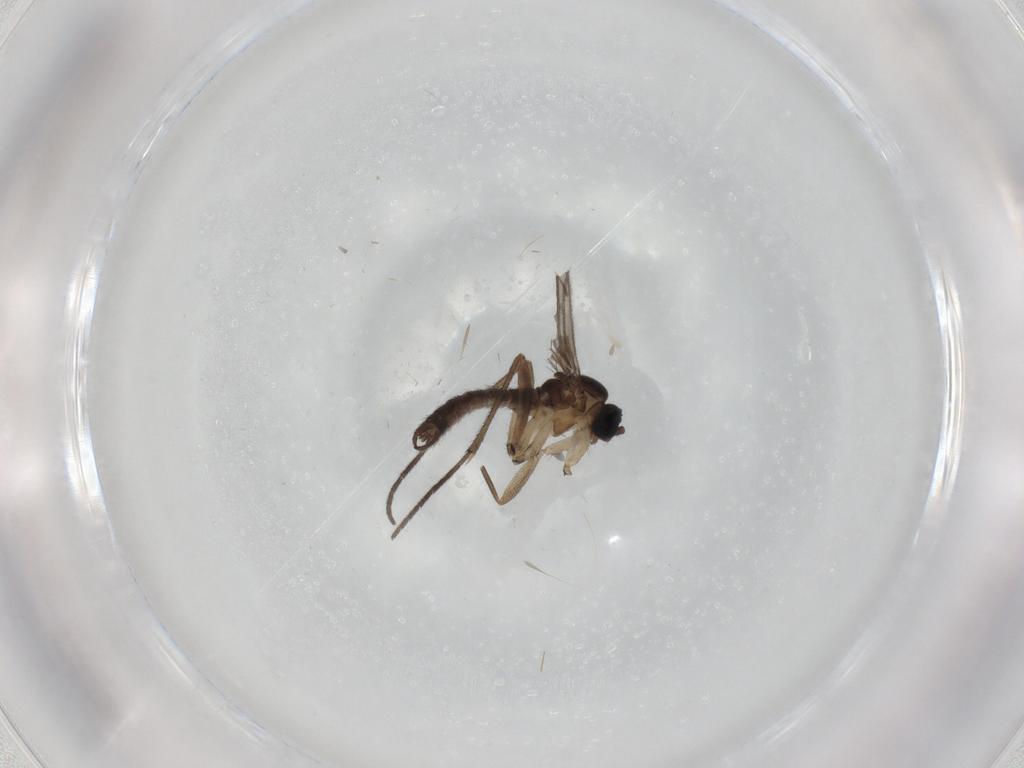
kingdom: Animalia
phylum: Arthropoda
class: Insecta
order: Diptera
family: Sciaridae
